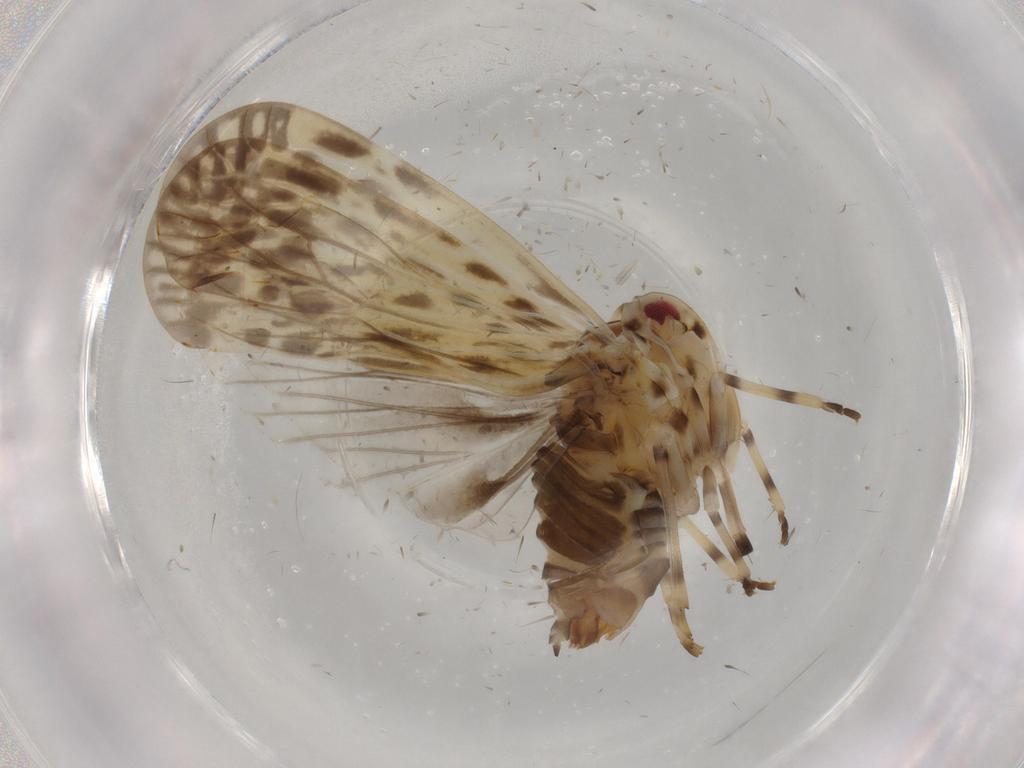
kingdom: Animalia
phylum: Arthropoda
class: Insecta
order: Hemiptera
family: Derbidae
